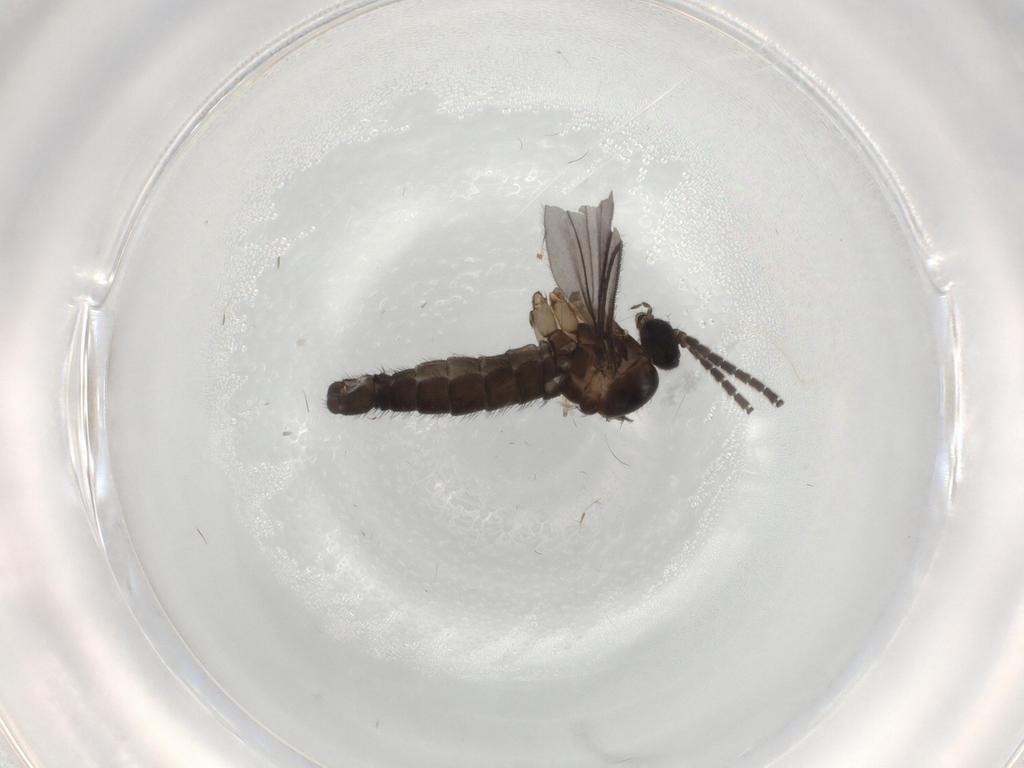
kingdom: Animalia
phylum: Arthropoda
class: Insecta
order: Diptera
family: Sciaridae
